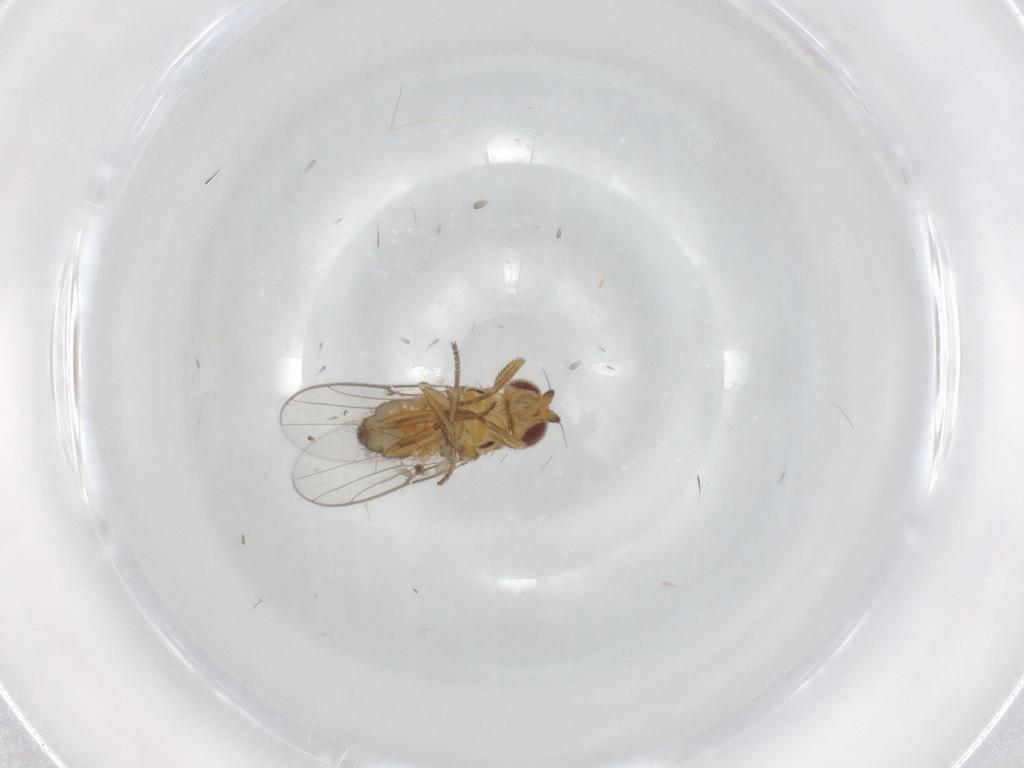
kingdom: Animalia
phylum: Arthropoda
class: Insecta
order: Diptera
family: Chloropidae
